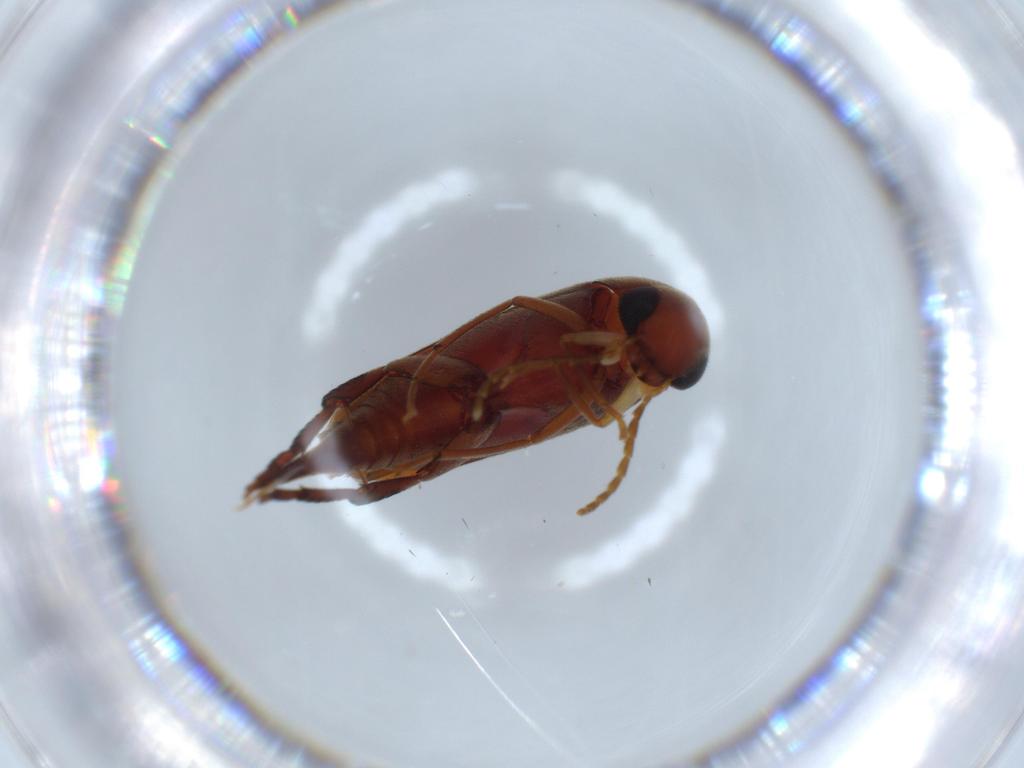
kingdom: Animalia
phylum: Arthropoda
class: Insecta
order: Coleoptera
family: Mordellidae
